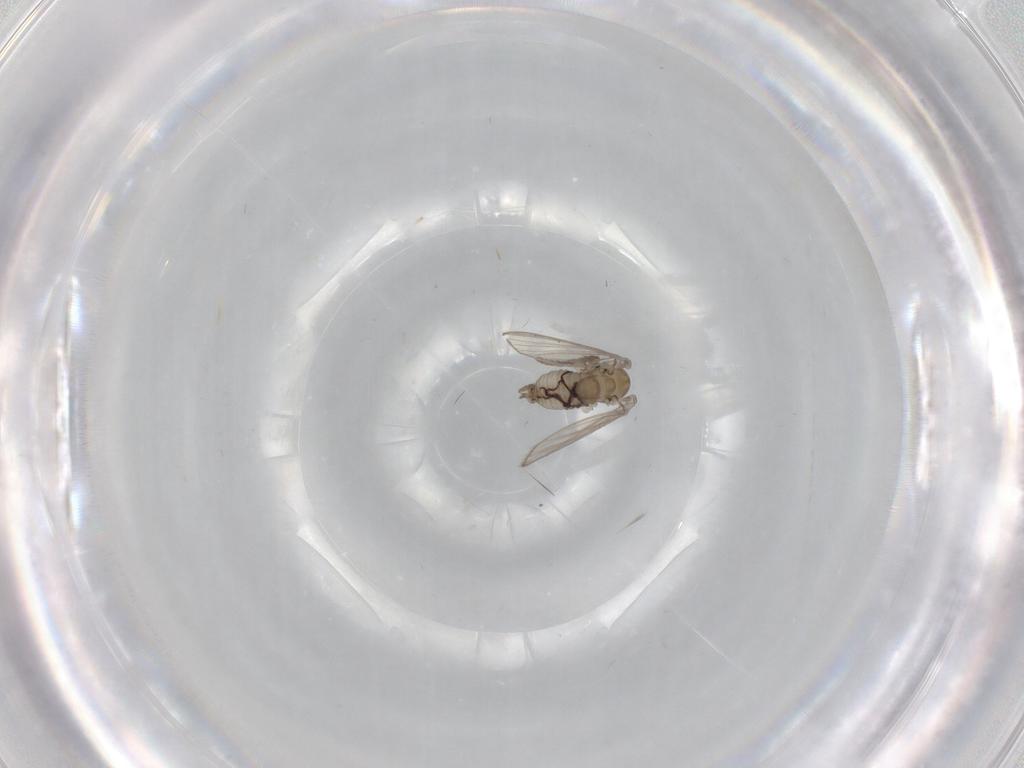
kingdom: Animalia
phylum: Arthropoda
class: Insecta
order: Diptera
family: Psychodidae
